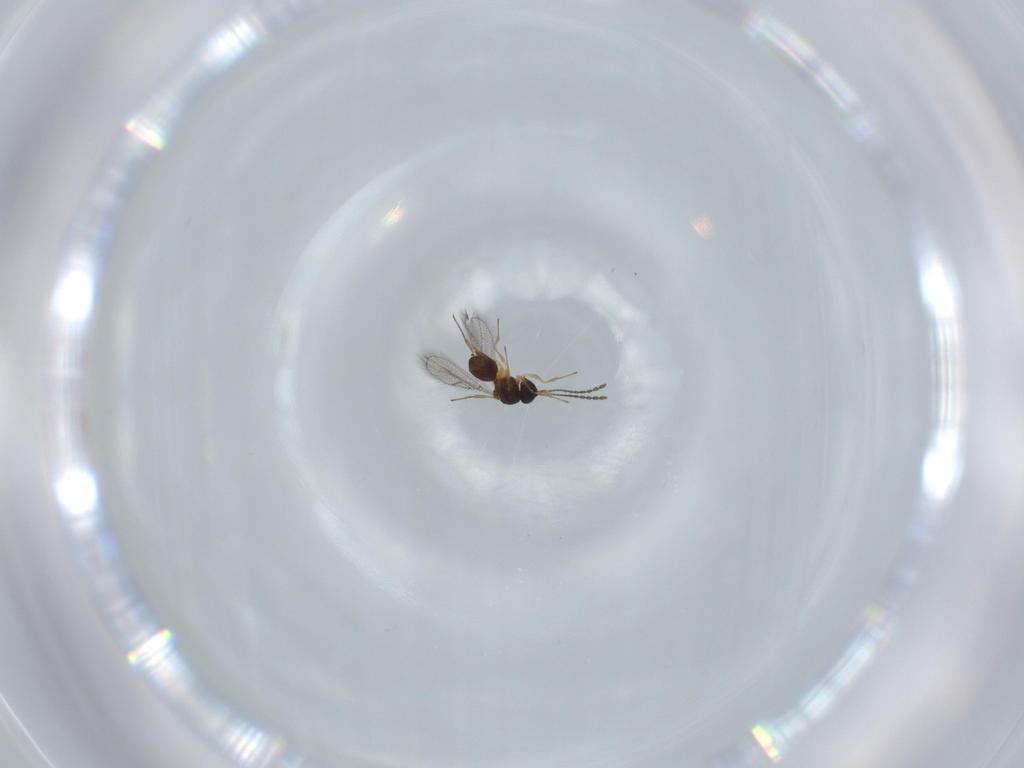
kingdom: Animalia
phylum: Arthropoda
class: Insecta
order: Hymenoptera
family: Figitidae
